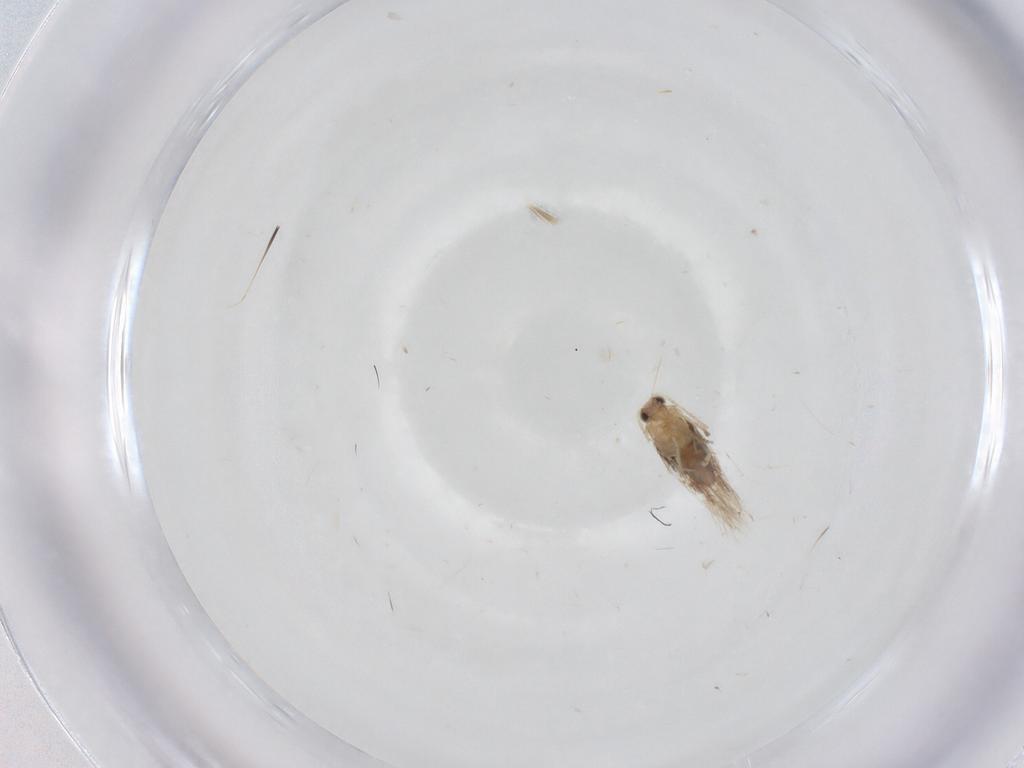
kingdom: Animalia
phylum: Arthropoda
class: Insecta
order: Lepidoptera
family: Nepticulidae
